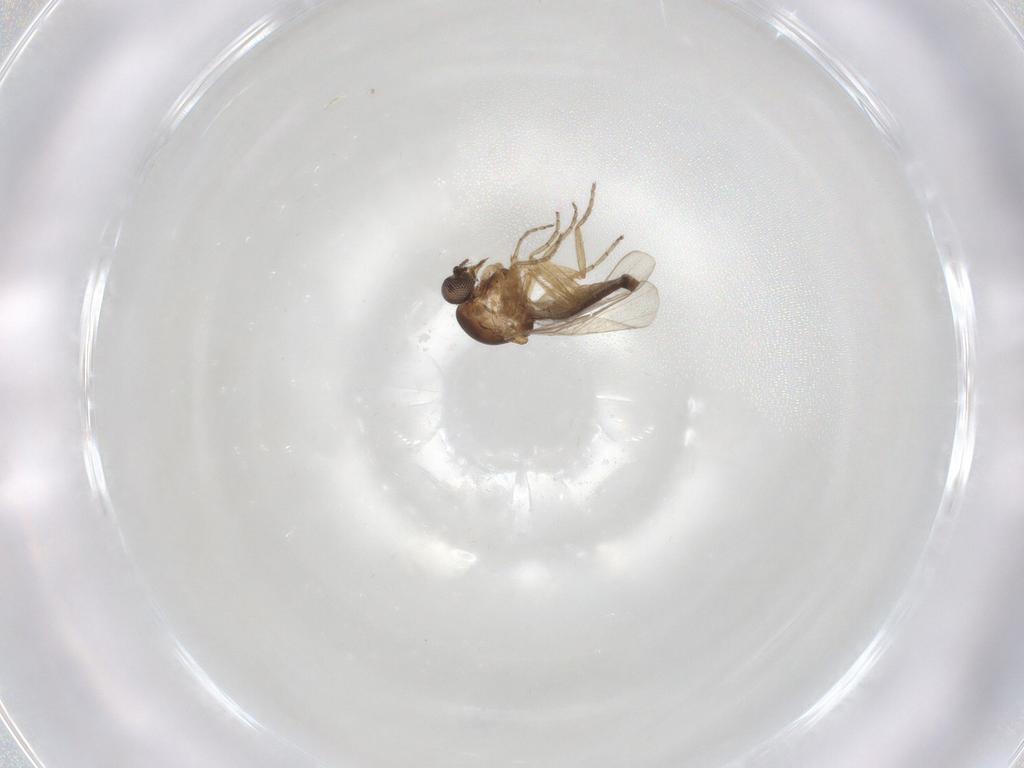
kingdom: Animalia
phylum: Arthropoda
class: Insecta
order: Diptera
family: Ceratopogonidae
